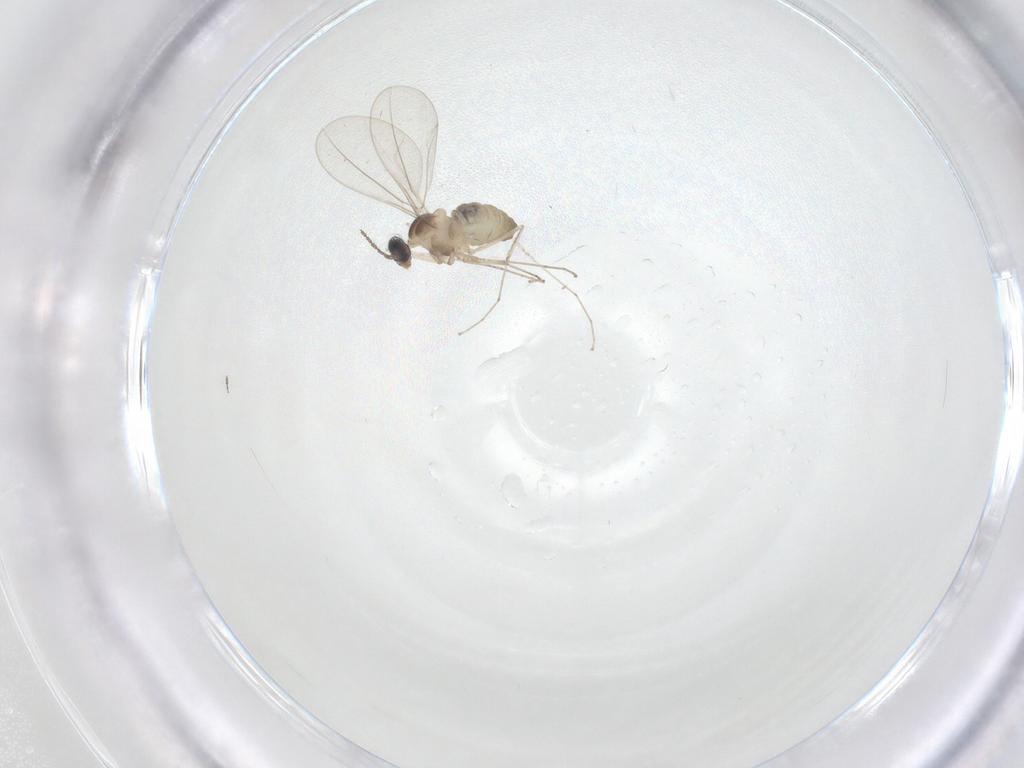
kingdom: Animalia
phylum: Arthropoda
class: Insecta
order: Diptera
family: Cecidomyiidae
